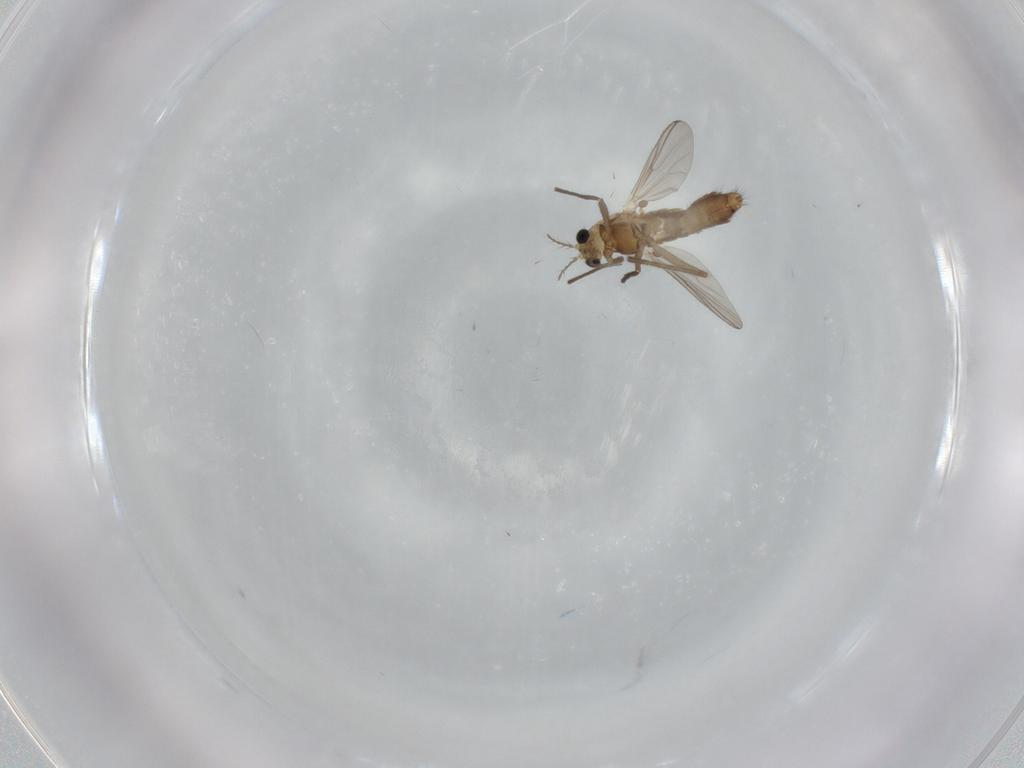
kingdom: Animalia
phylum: Arthropoda
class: Insecta
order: Diptera
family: Chironomidae
